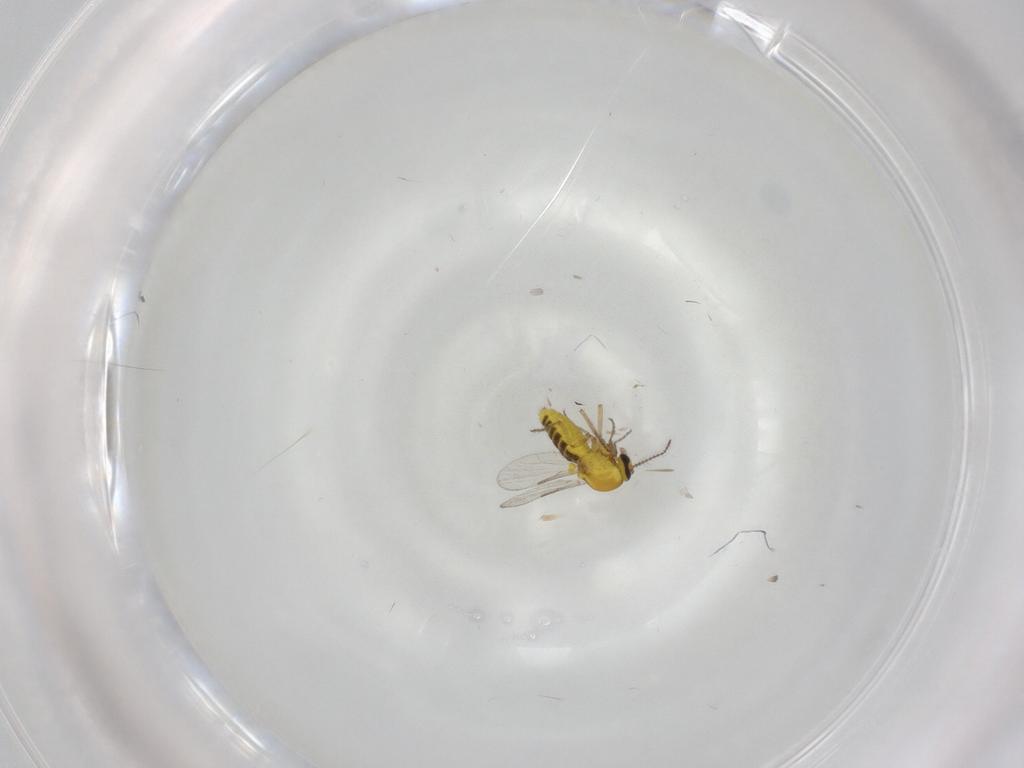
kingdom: Animalia
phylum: Arthropoda
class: Insecta
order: Diptera
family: Ceratopogonidae
